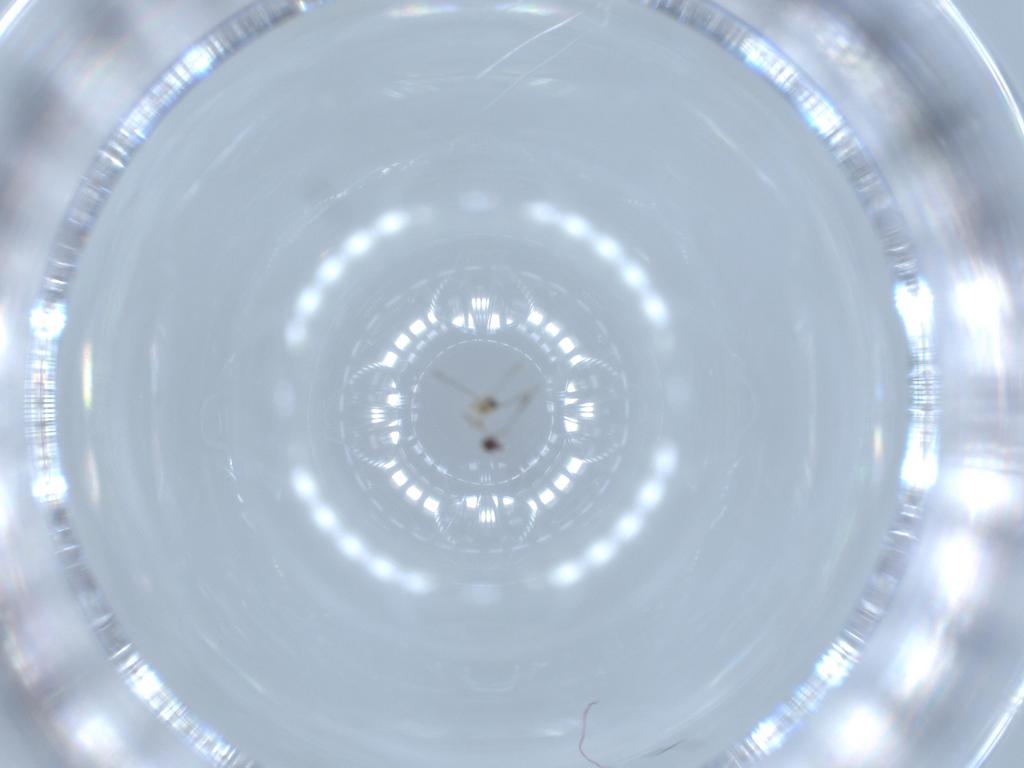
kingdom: Animalia
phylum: Arthropoda
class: Insecta
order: Hymenoptera
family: Mymaridae
